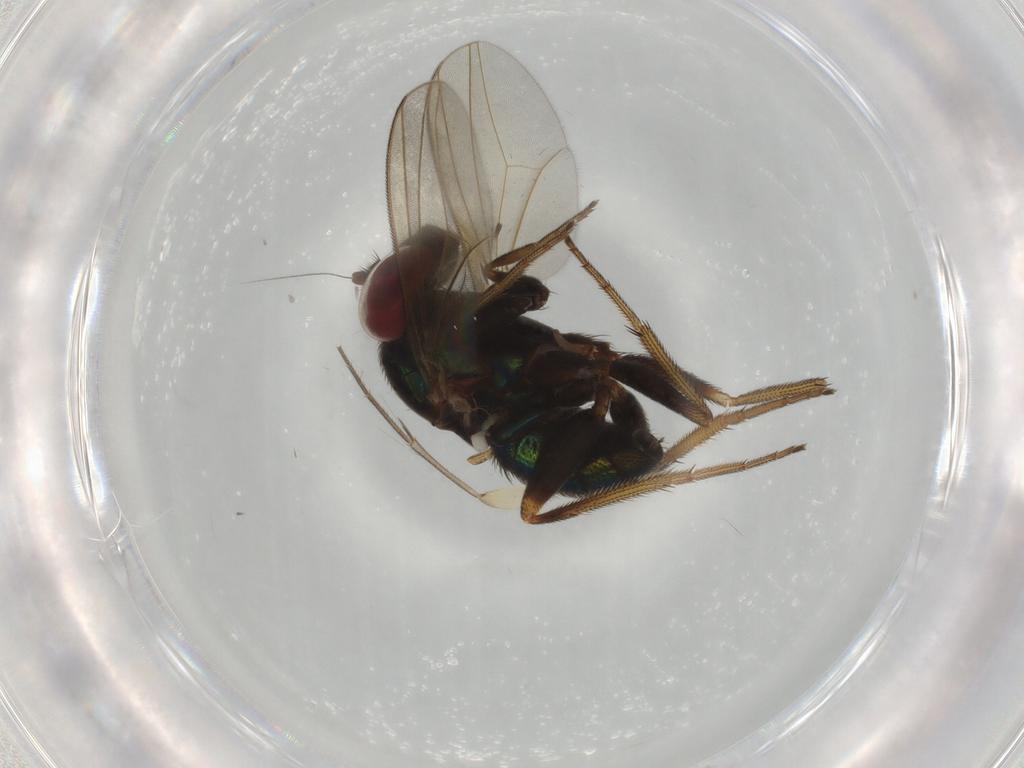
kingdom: Animalia
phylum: Arthropoda
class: Insecta
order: Diptera
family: Dolichopodidae
